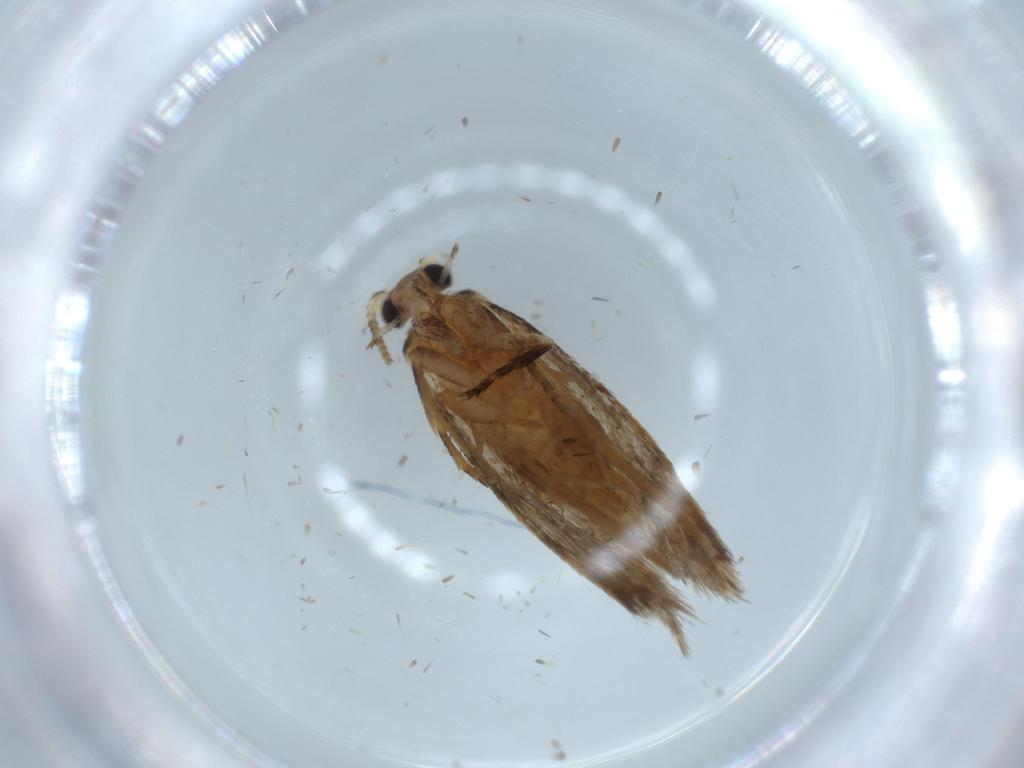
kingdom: Animalia
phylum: Arthropoda
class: Insecta
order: Lepidoptera
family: Tineidae
